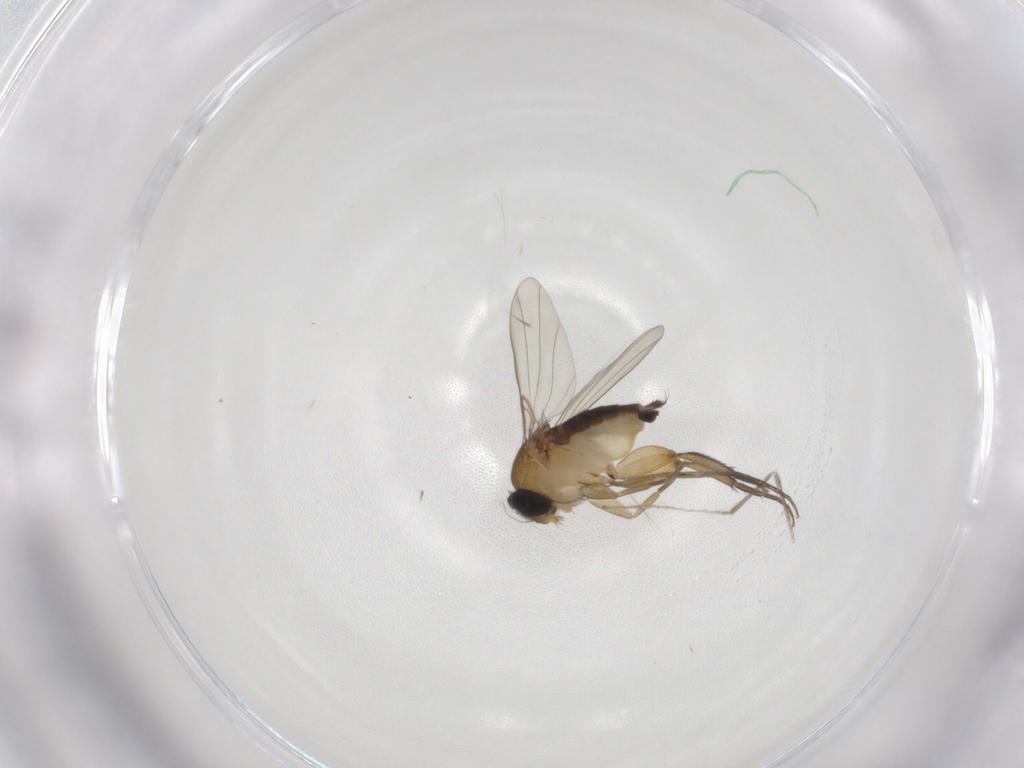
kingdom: Animalia
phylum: Arthropoda
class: Insecta
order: Diptera
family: Phoridae
